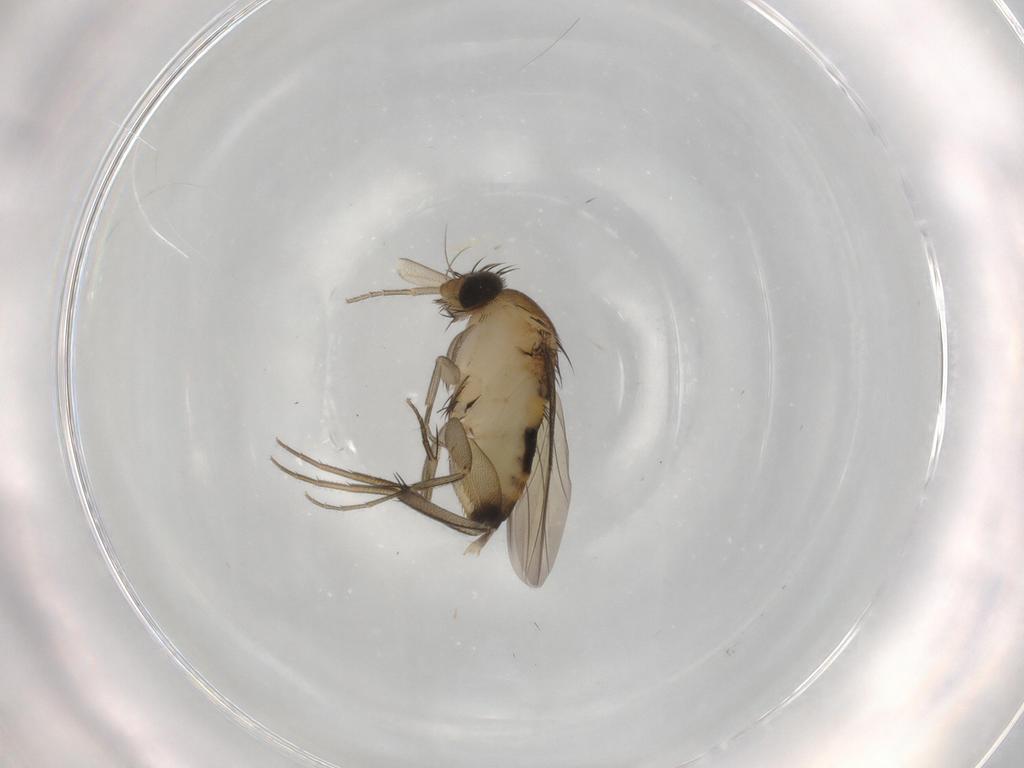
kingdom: Animalia
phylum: Arthropoda
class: Insecta
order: Diptera
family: Phoridae
